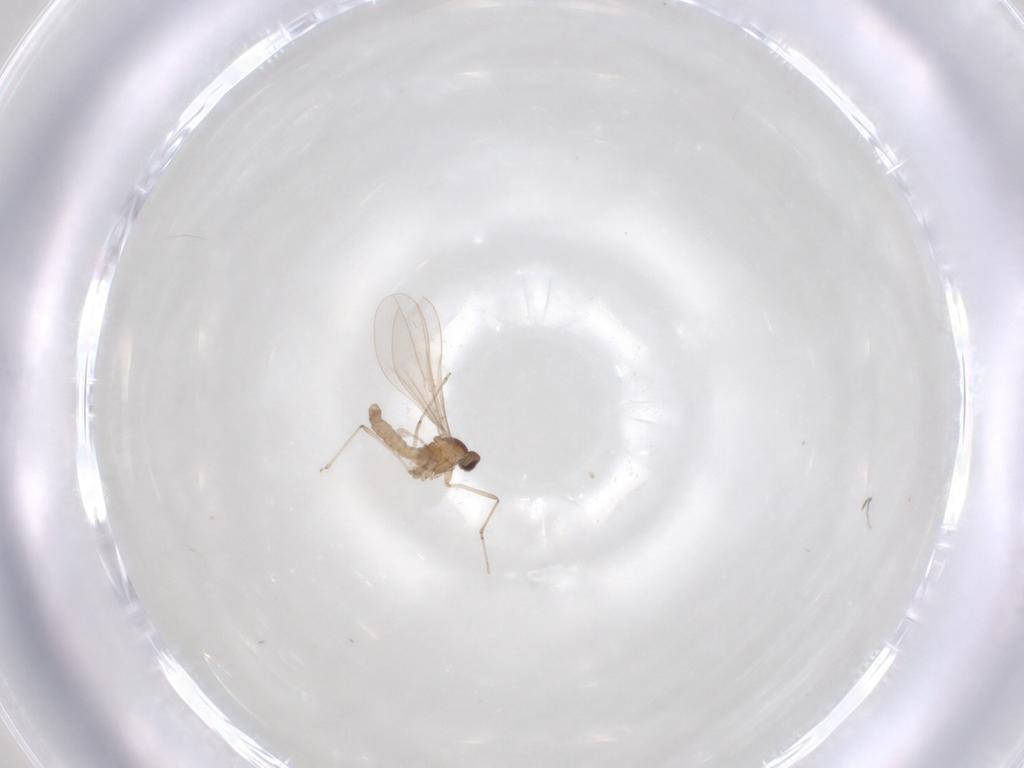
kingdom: Animalia
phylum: Arthropoda
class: Insecta
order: Diptera
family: Cecidomyiidae
